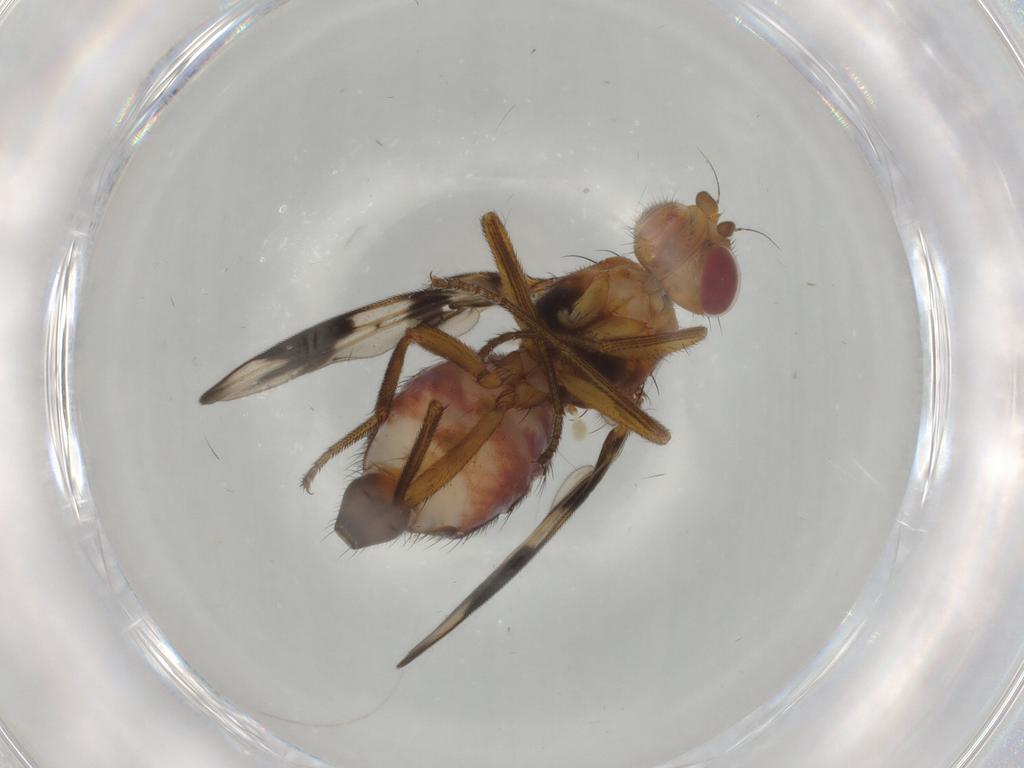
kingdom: Animalia
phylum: Arthropoda
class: Insecta
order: Diptera
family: Richardiidae
